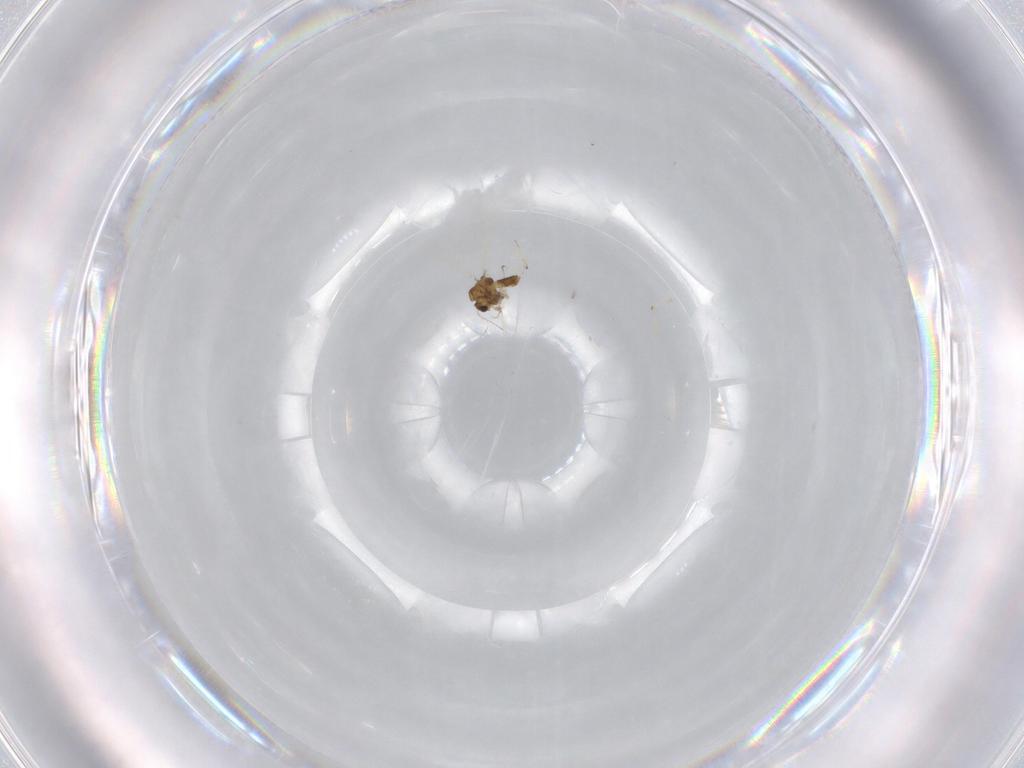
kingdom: Animalia
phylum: Arthropoda
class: Insecta
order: Diptera
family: Chironomidae
